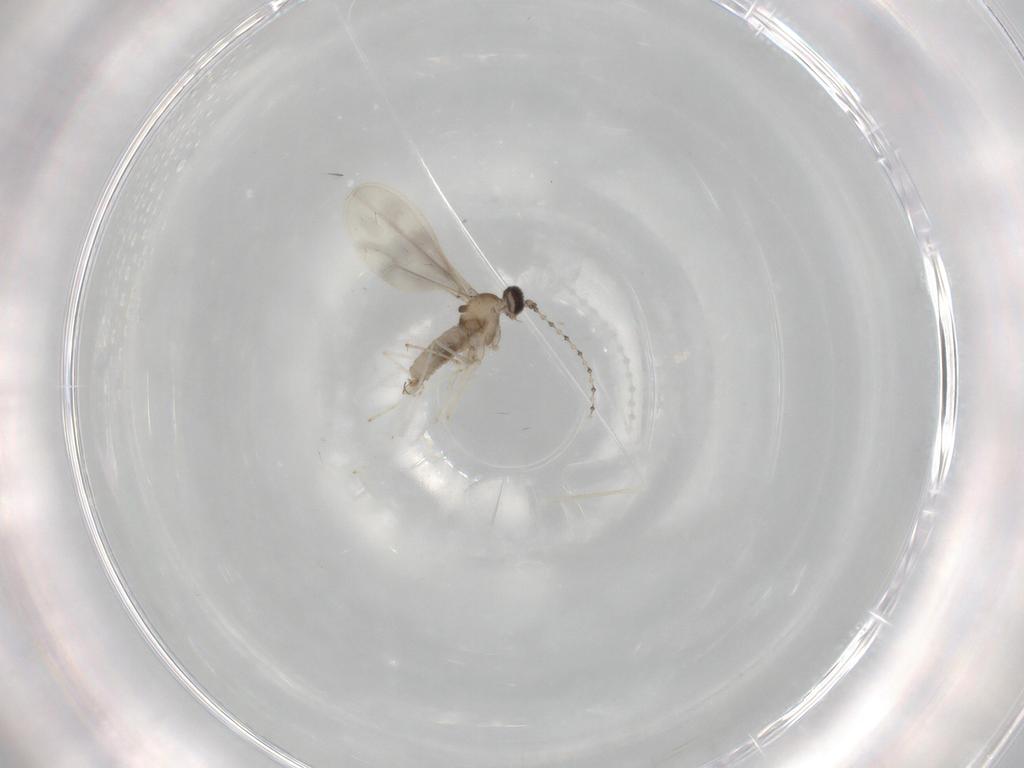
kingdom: Animalia
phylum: Arthropoda
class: Insecta
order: Diptera
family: Cecidomyiidae
